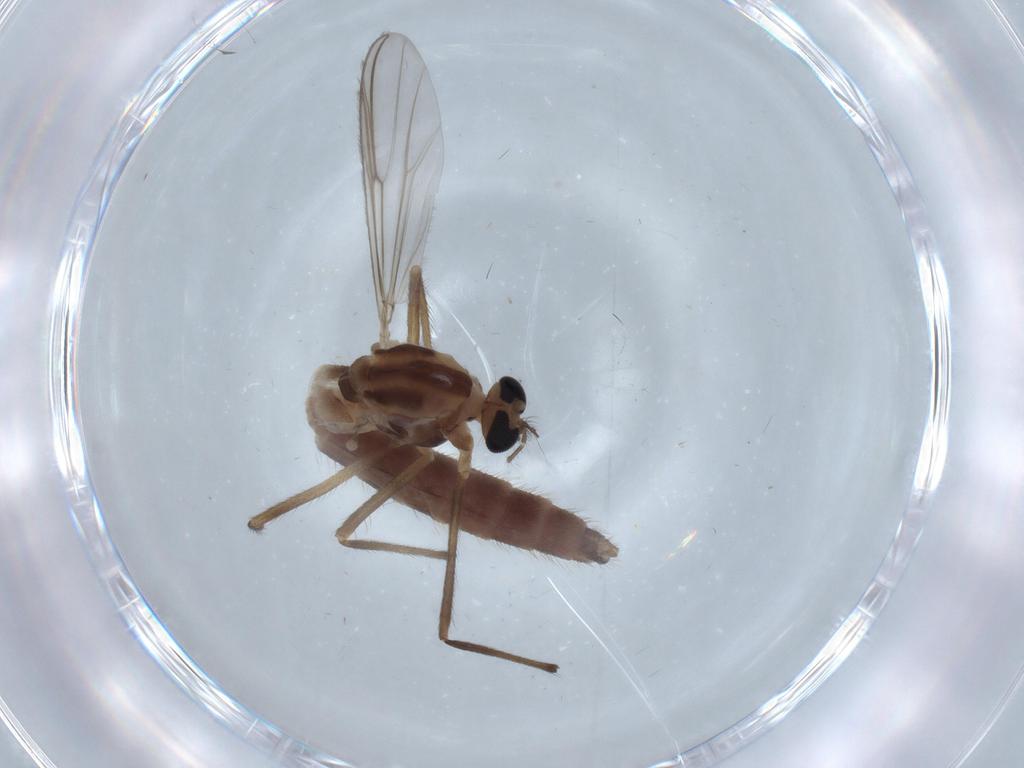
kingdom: Animalia
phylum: Arthropoda
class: Insecta
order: Diptera
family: Chironomidae
